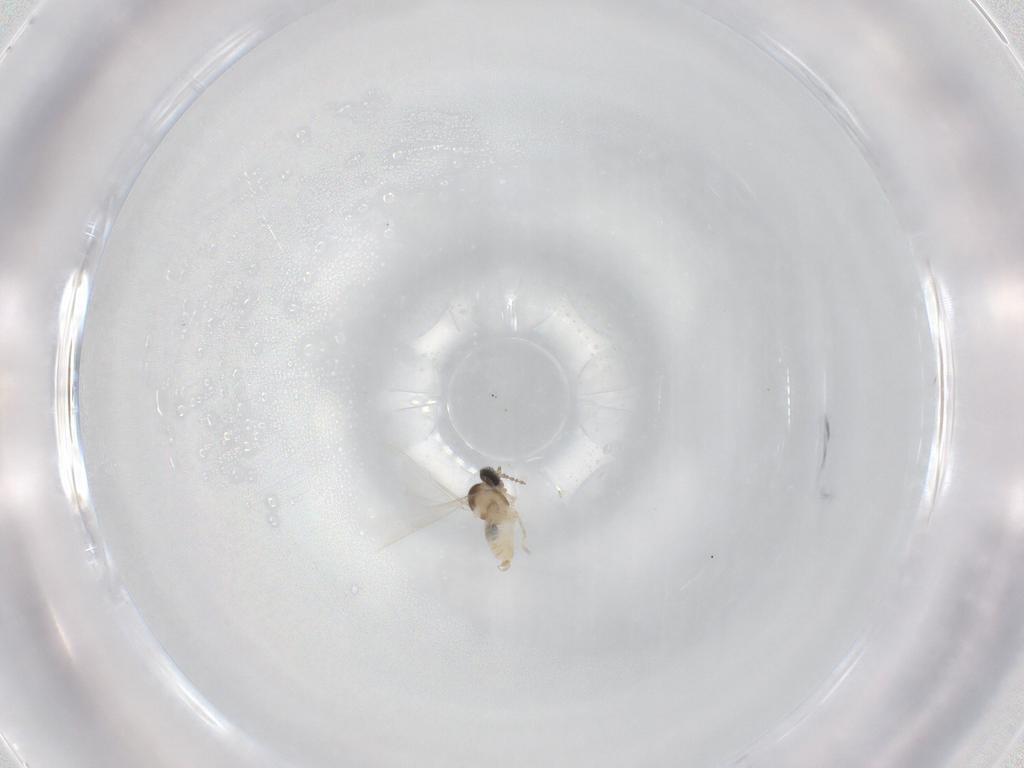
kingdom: Animalia
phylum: Arthropoda
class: Insecta
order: Diptera
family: Cecidomyiidae
